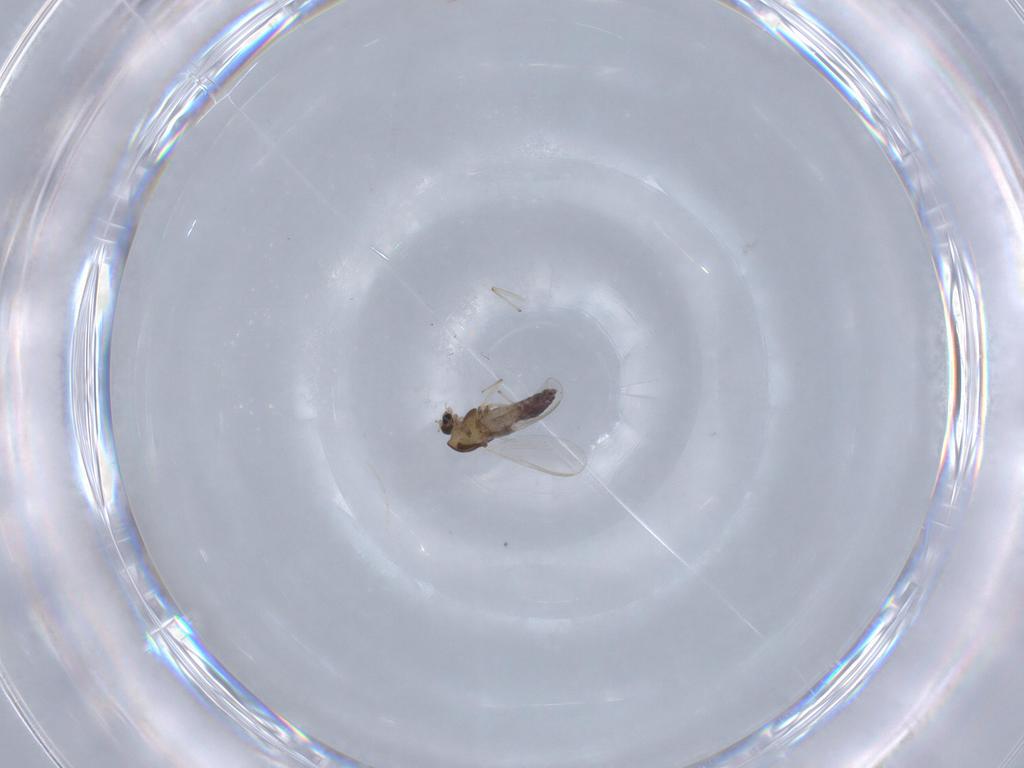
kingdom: Animalia
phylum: Arthropoda
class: Insecta
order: Diptera
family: Chironomidae
